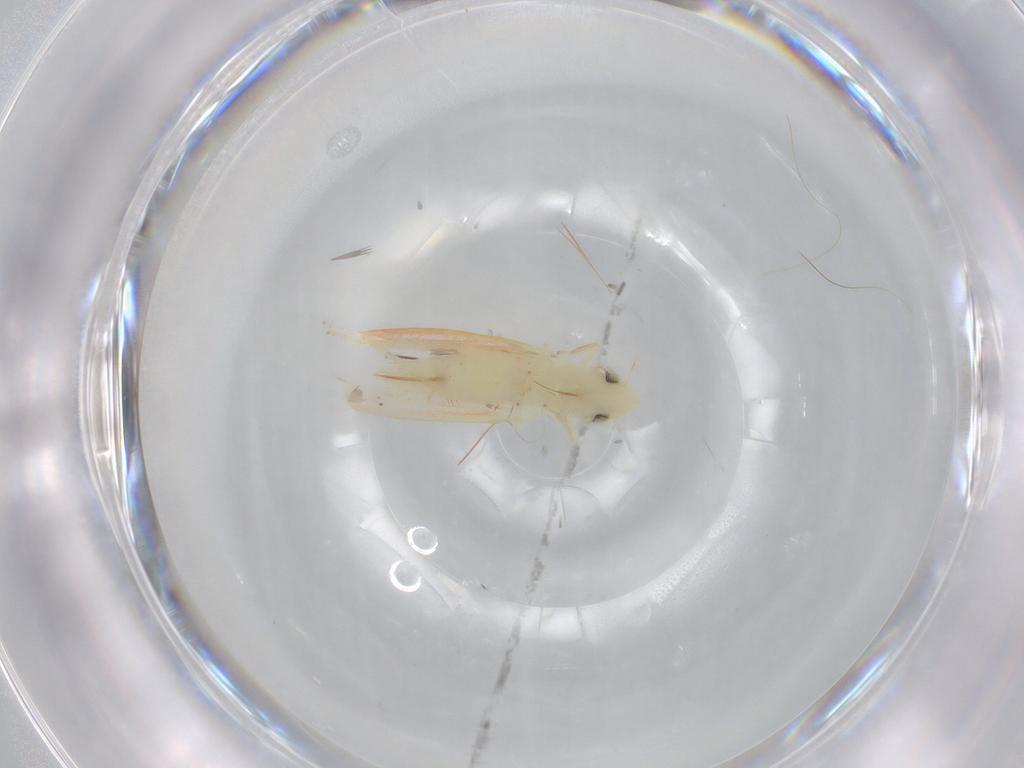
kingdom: Animalia
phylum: Arthropoda
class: Insecta
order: Hemiptera
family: Cicadellidae
